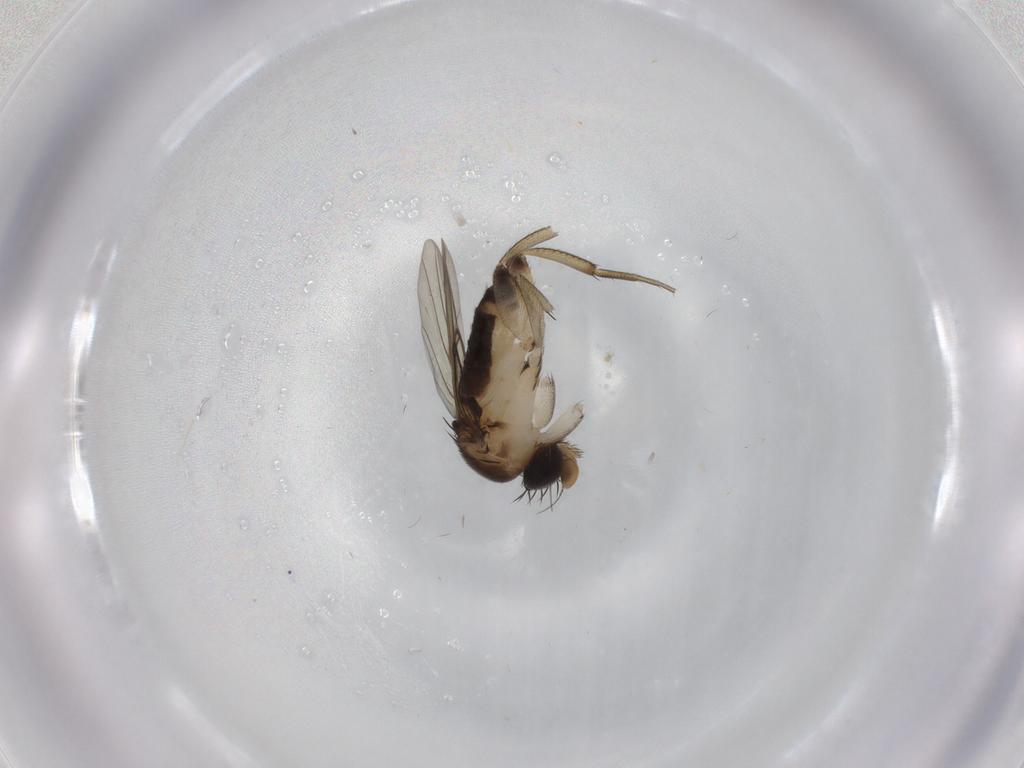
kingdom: Animalia
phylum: Arthropoda
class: Insecta
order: Diptera
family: Phoridae
